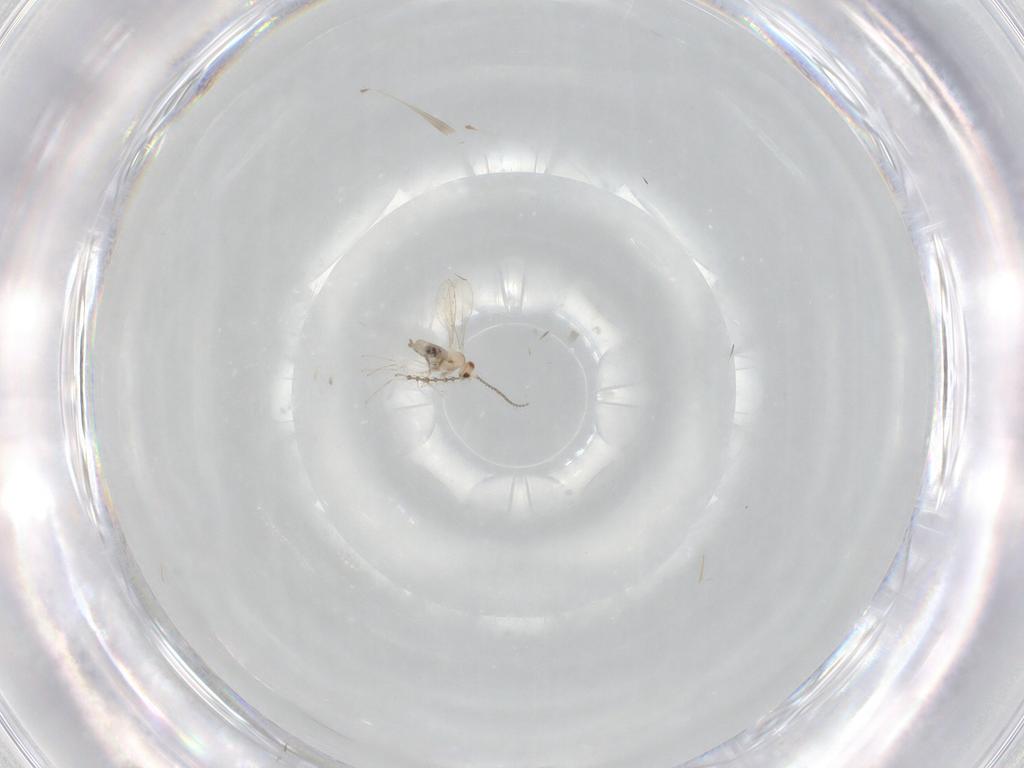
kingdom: Animalia
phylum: Arthropoda
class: Insecta
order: Diptera
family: Cecidomyiidae
